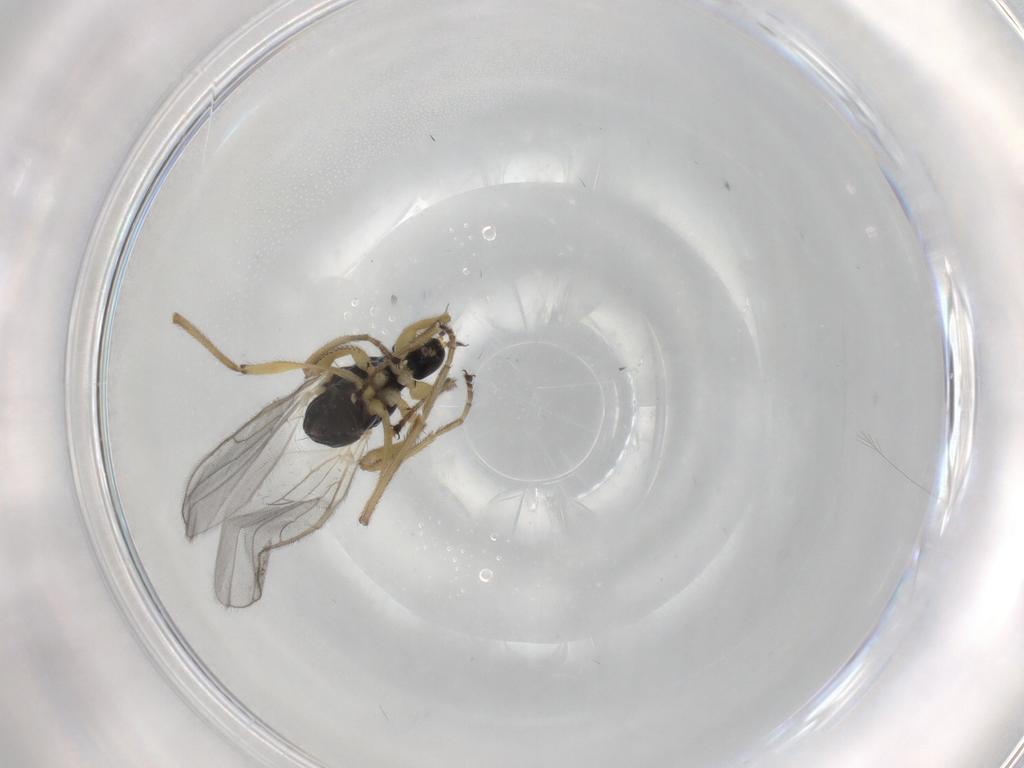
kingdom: Animalia
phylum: Arthropoda
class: Insecta
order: Diptera
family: Hybotidae
